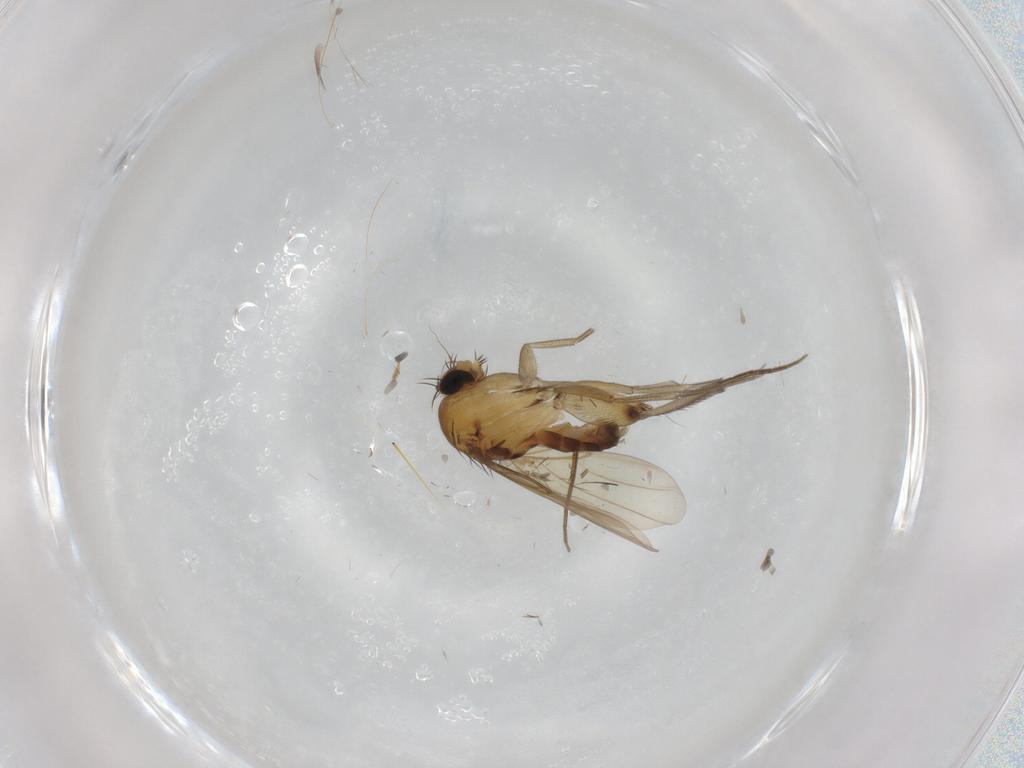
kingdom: Animalia
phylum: Arthropoda
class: Insecta
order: Diptera
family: Phoridae
